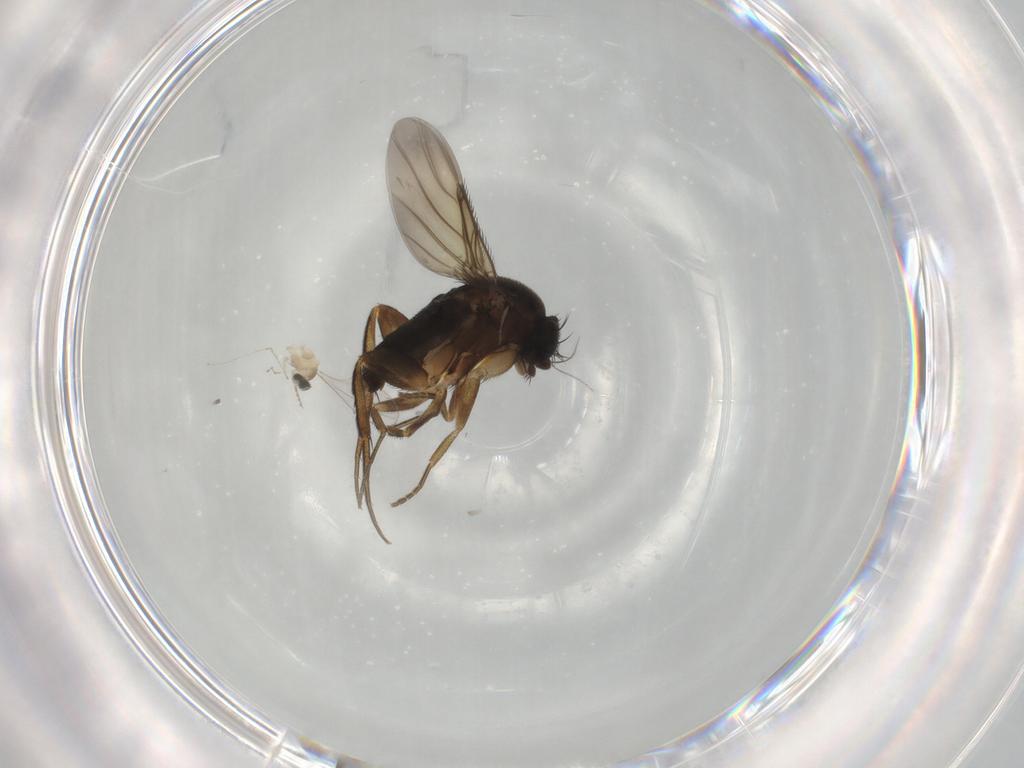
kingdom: Animalia
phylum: Arthropoda
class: Insecta
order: Diptera
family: Phoridae
